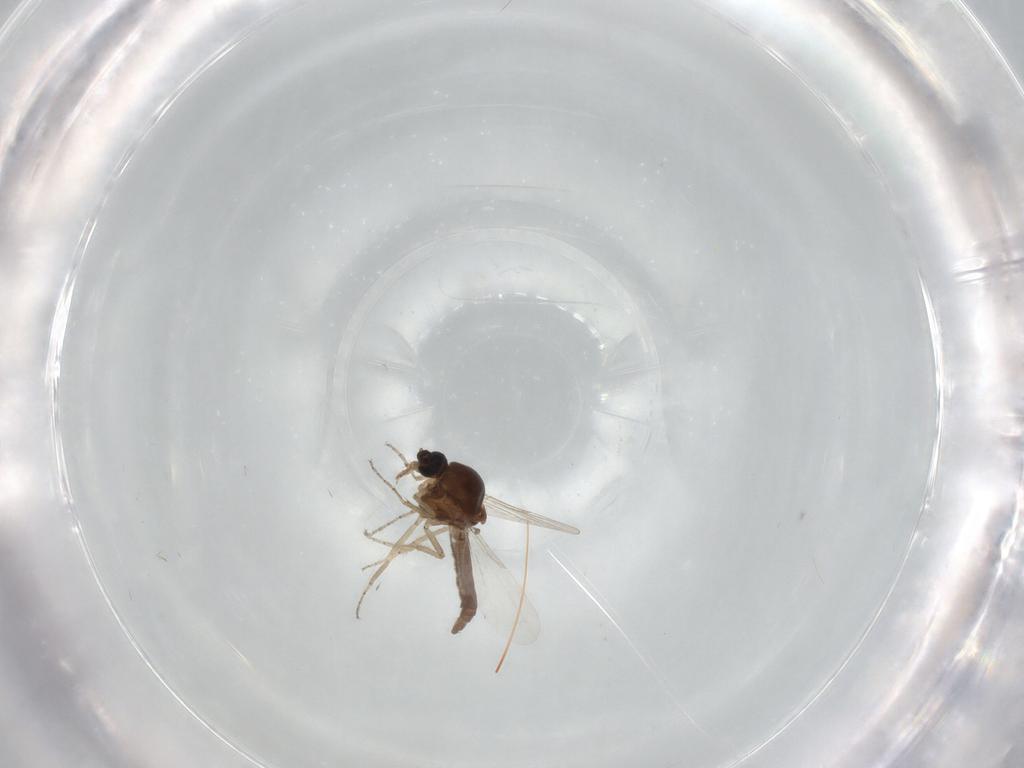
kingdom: Animalia
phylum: Arthropoda
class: Insecta
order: Diptera
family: Ceratopogonidae
